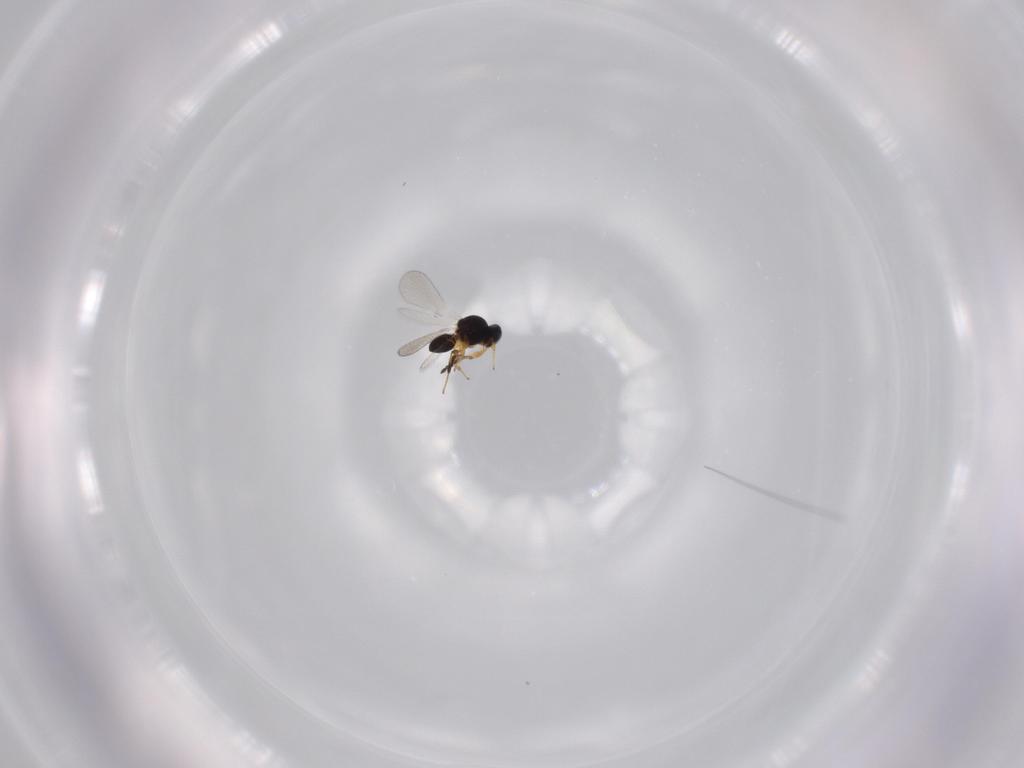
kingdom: Animalia
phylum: Arthropoda
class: Insecta
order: Hymenoptera
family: Platygastridae
